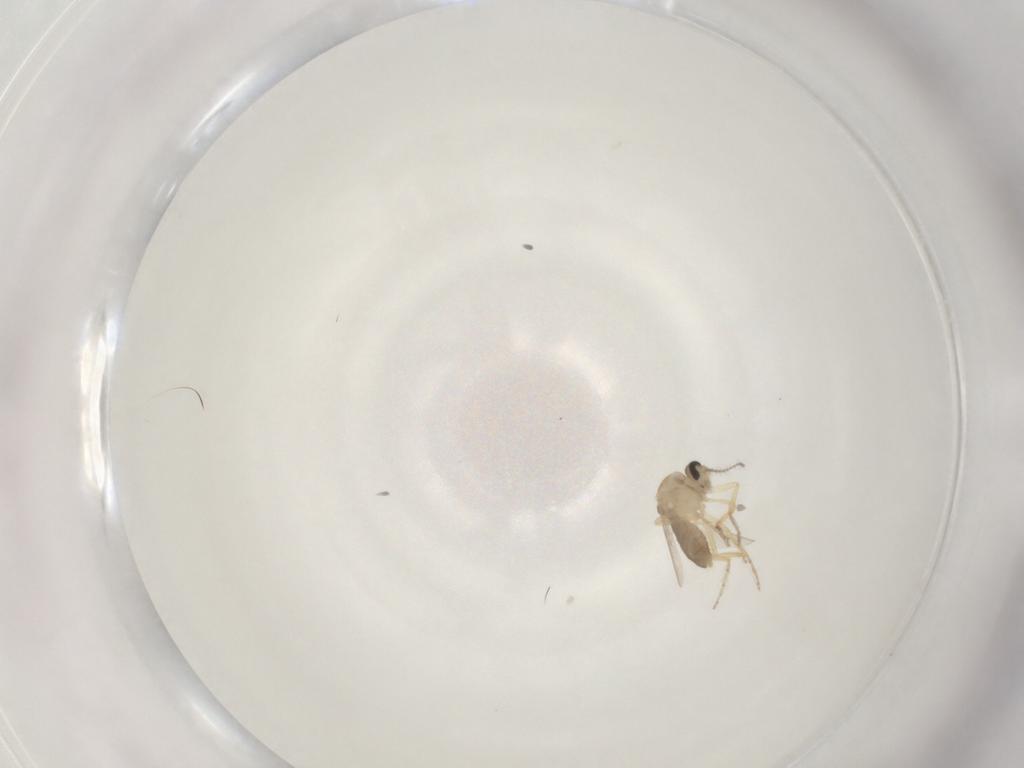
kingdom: Animalia
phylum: Arthropoda
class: Insecta
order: Diptera
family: Ceratopogonidae
